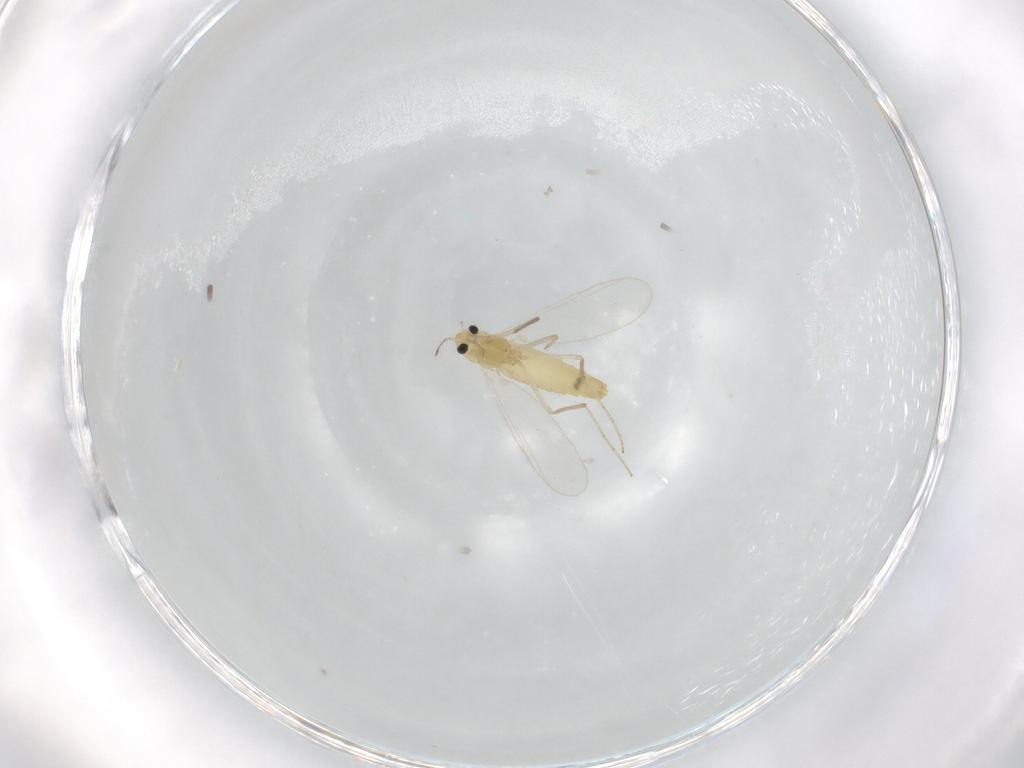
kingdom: Animalia
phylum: Arthropoda
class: Insecta
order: Diptera
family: Chironomidae
